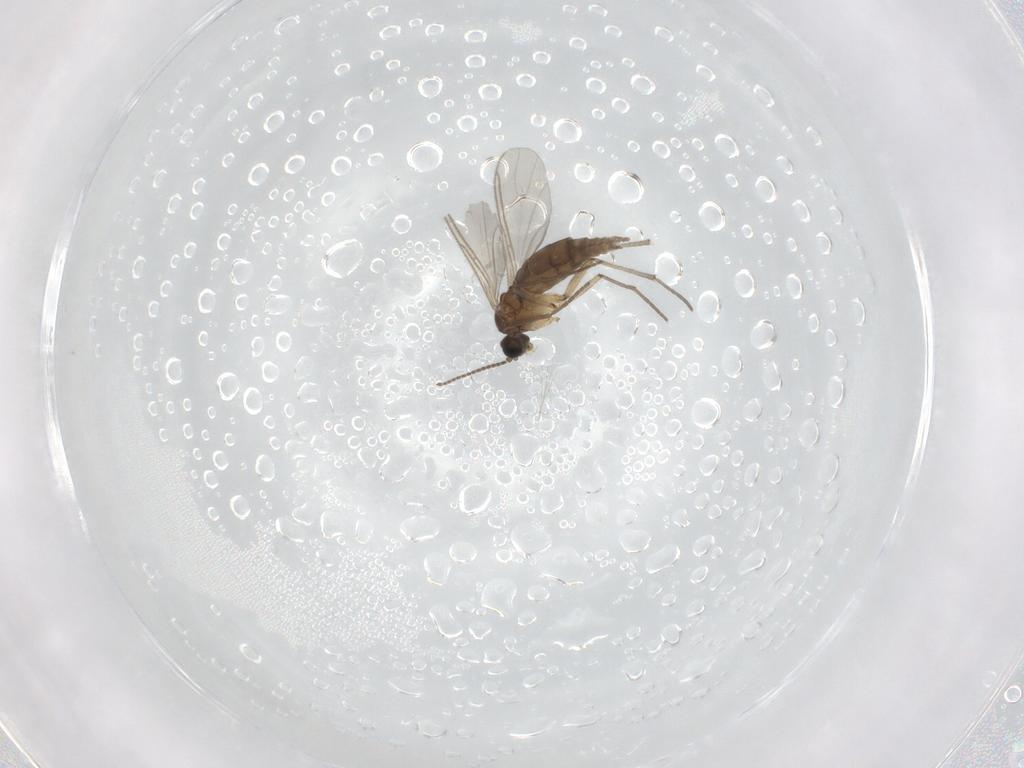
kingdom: Animalia
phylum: Arthropoda
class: Insecta
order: Diptera
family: Sciaridae
